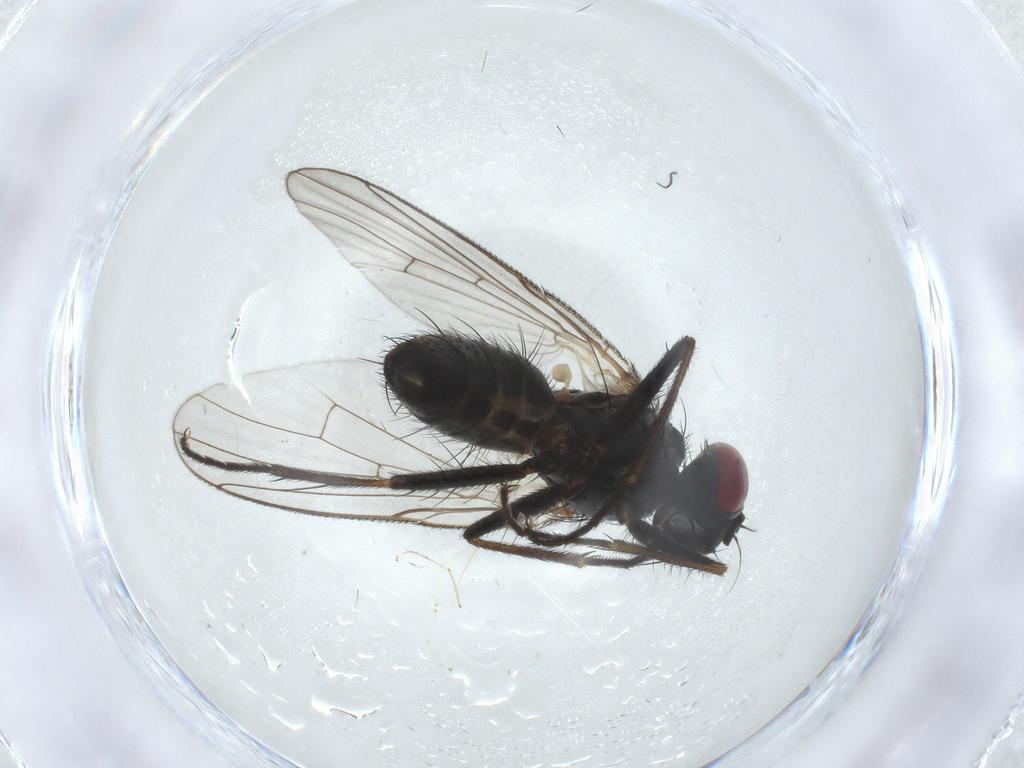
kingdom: Animalia
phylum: Arthropoda
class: Insecta
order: Diptera
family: Muscidae
